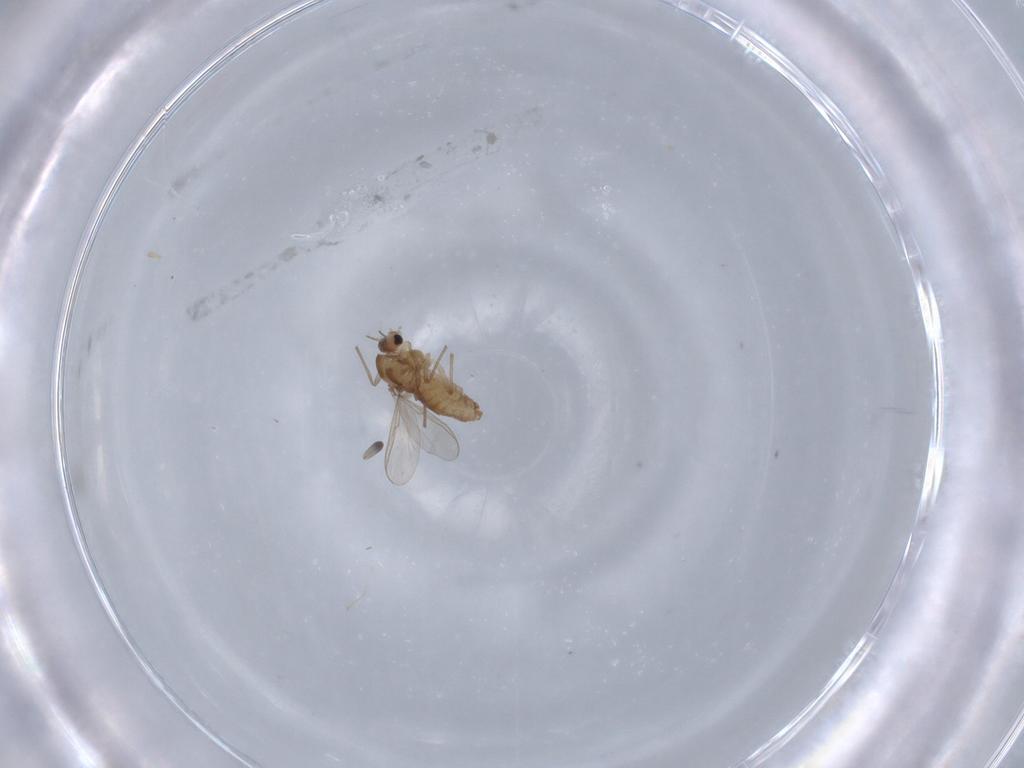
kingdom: Animalia
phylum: Arthropoda
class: Insecta
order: Diptera
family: Chironomidae
